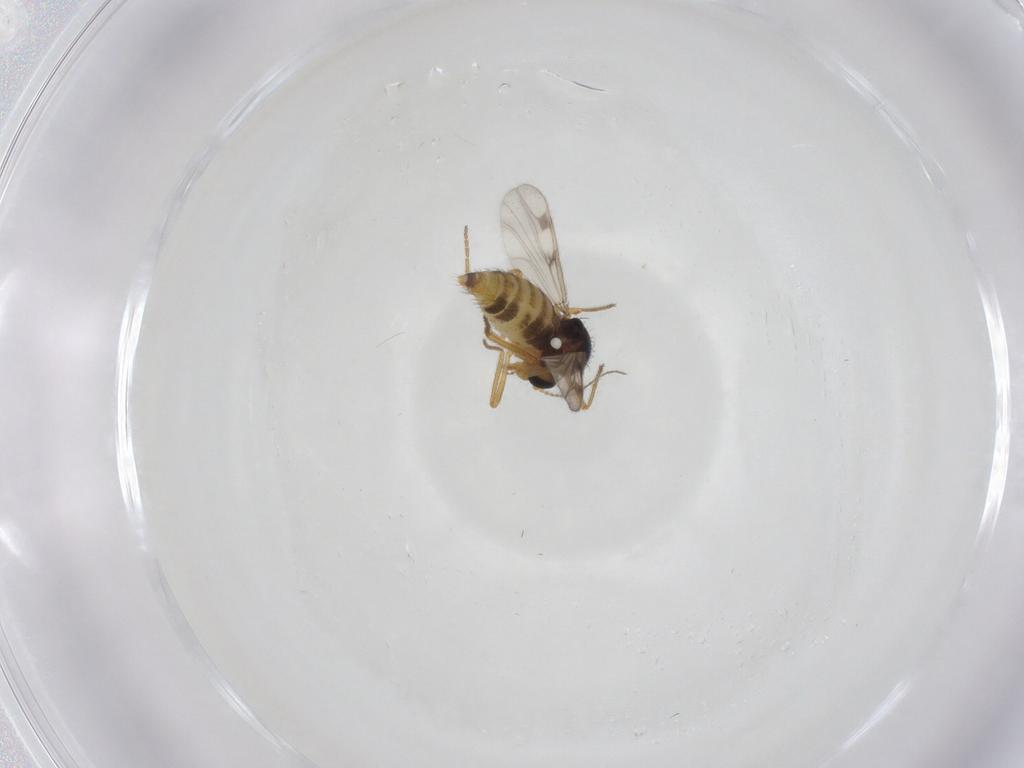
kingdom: Animalia
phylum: Arthropoda
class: Insecta
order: Diptera
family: Ceratopogonidae
